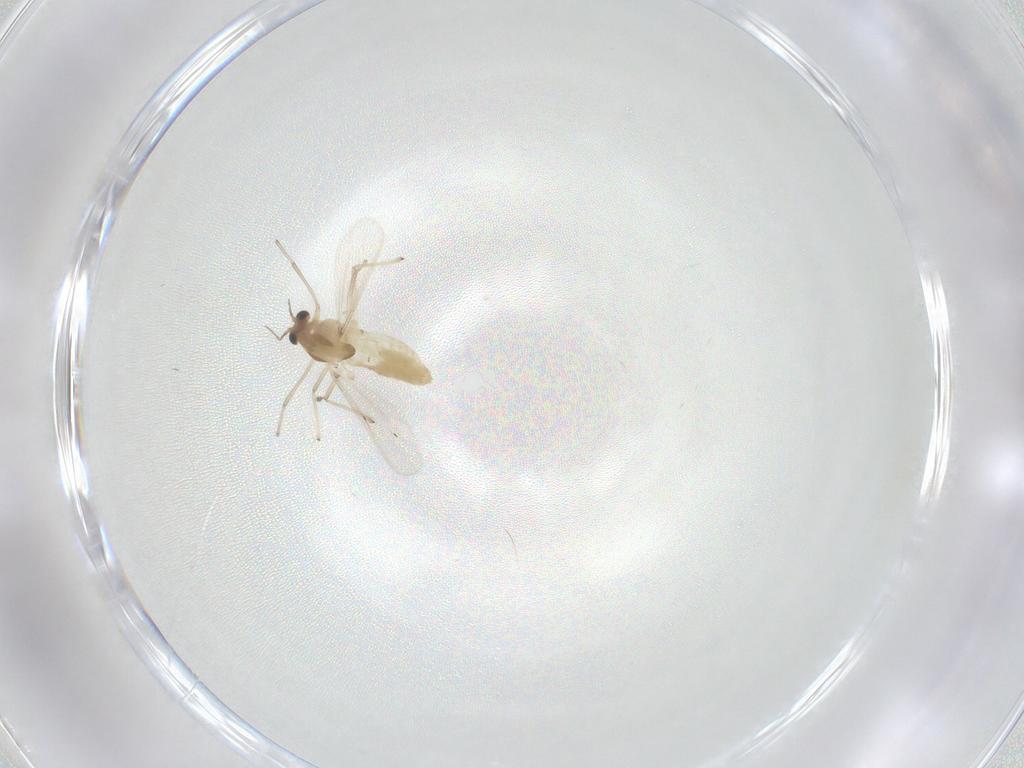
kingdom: Animalia
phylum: Arthropoda
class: Insecta
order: Diptera
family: Chironomidae
